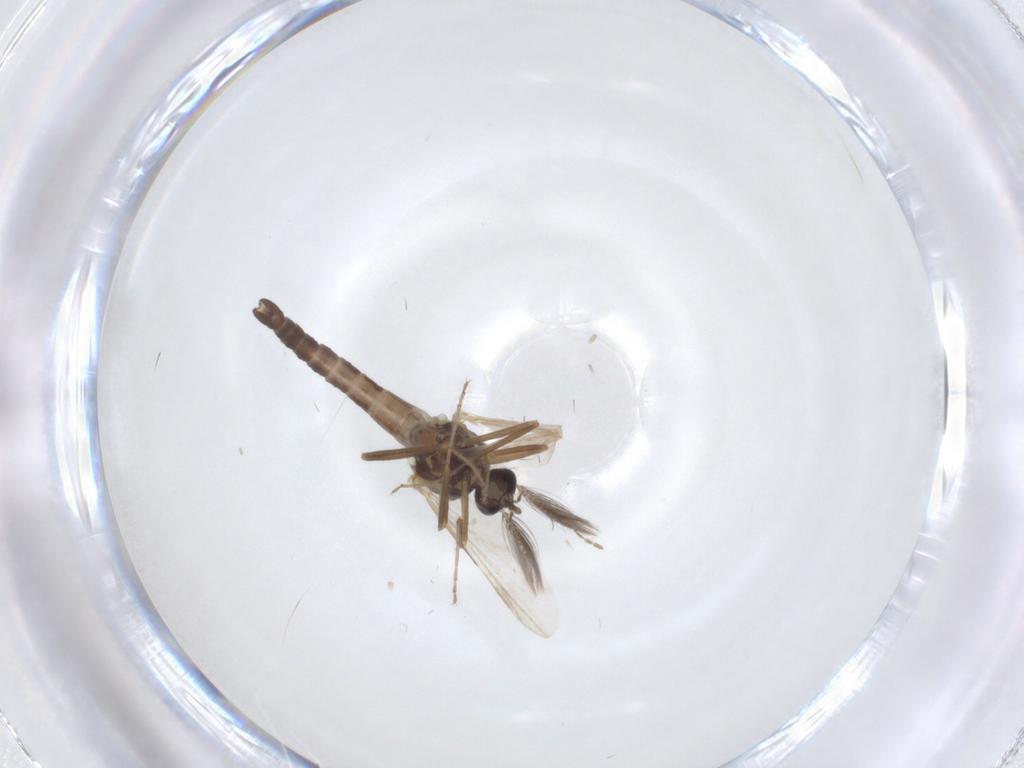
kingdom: Animalia
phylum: Arthropoda
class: Insecta
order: Diptera
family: Ceratopogonidae
